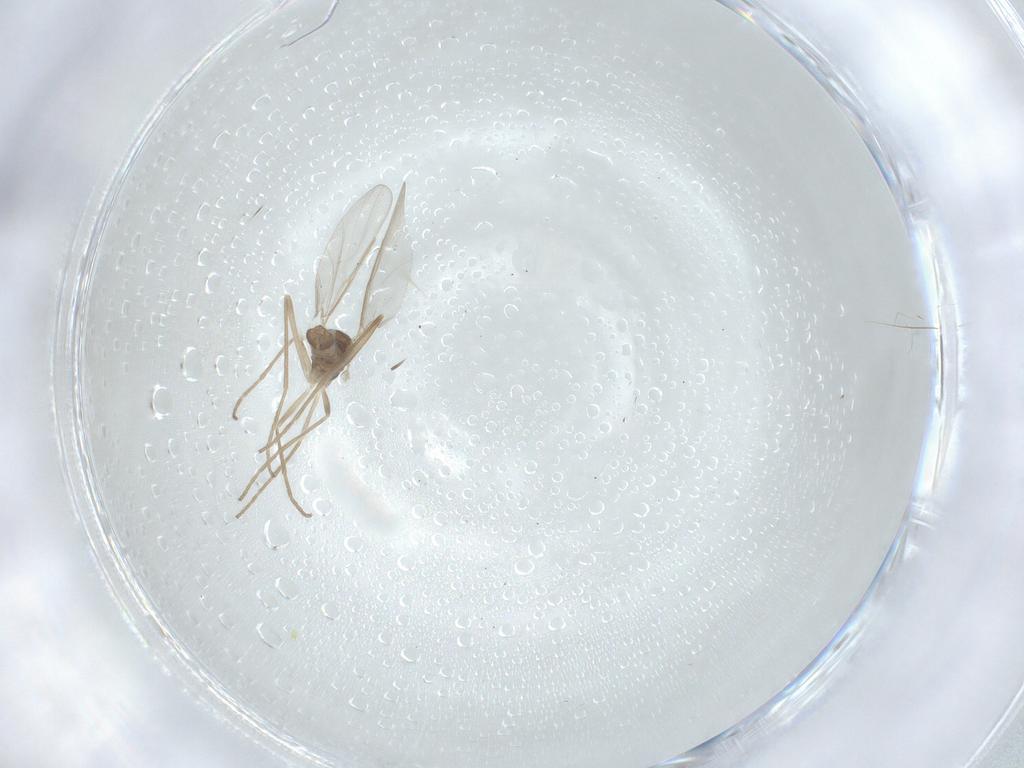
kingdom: Animalia
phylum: Arthropoda
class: Insecta
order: Diptera
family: Cecidomyiidae
